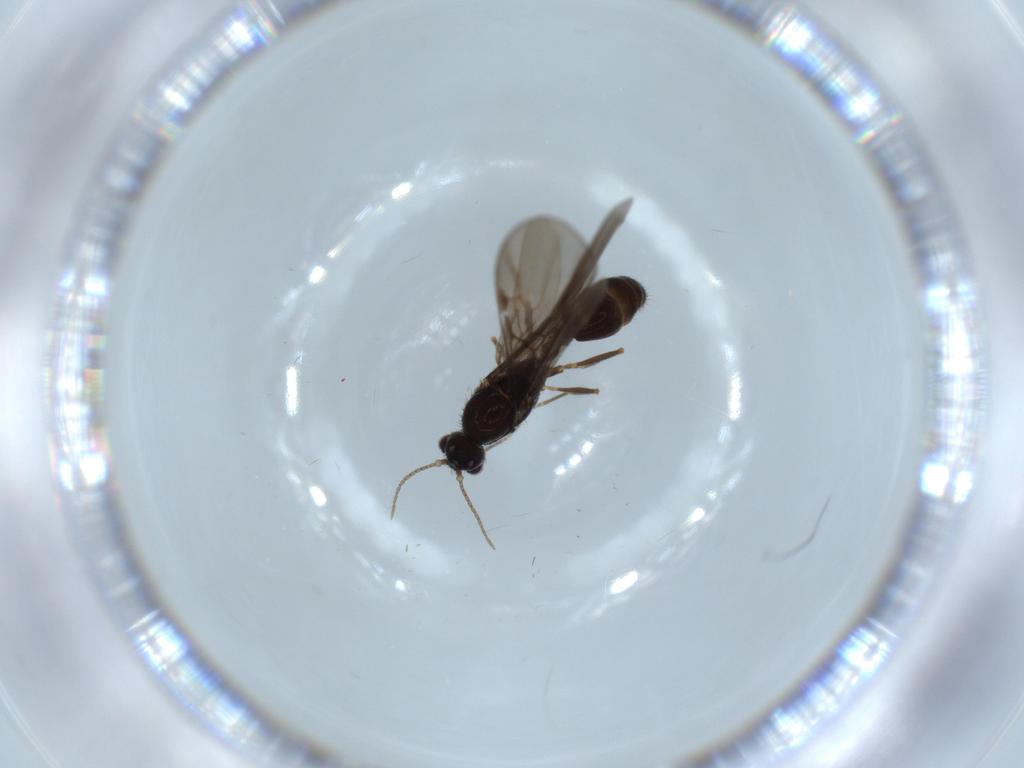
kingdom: Animalia
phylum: Arthropoda
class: Insecta
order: Hymenoptera
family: Formicidae
